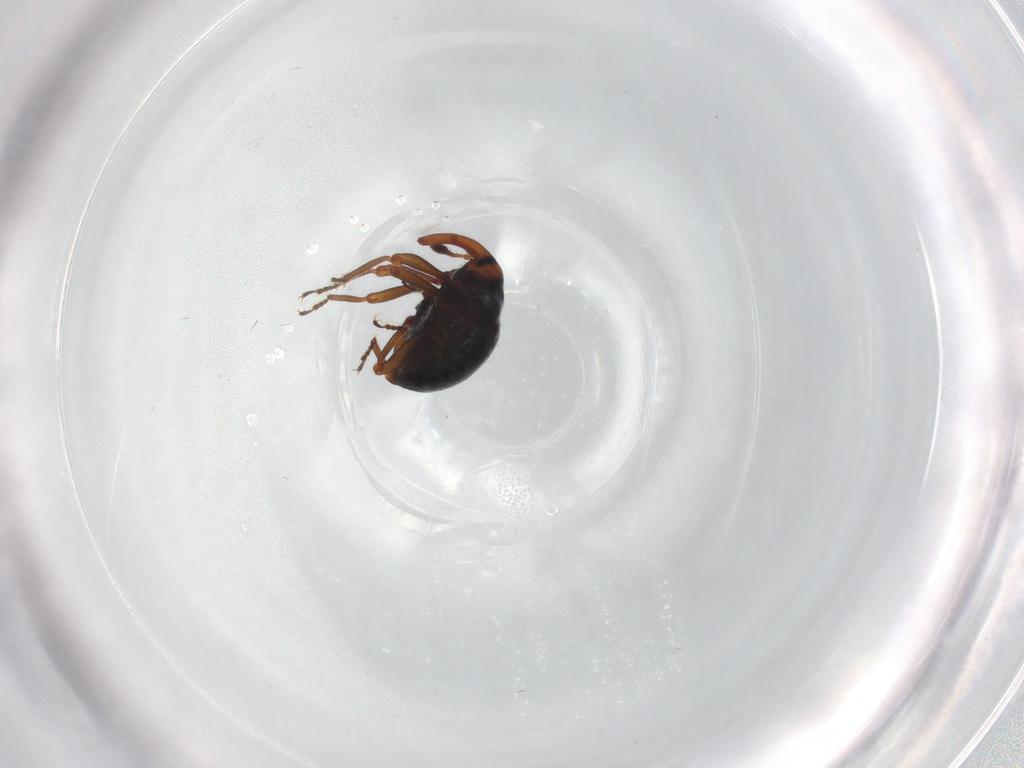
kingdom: Animalia
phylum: Arthropoda
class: Insecta
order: Coleoptera
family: Curculionidae
